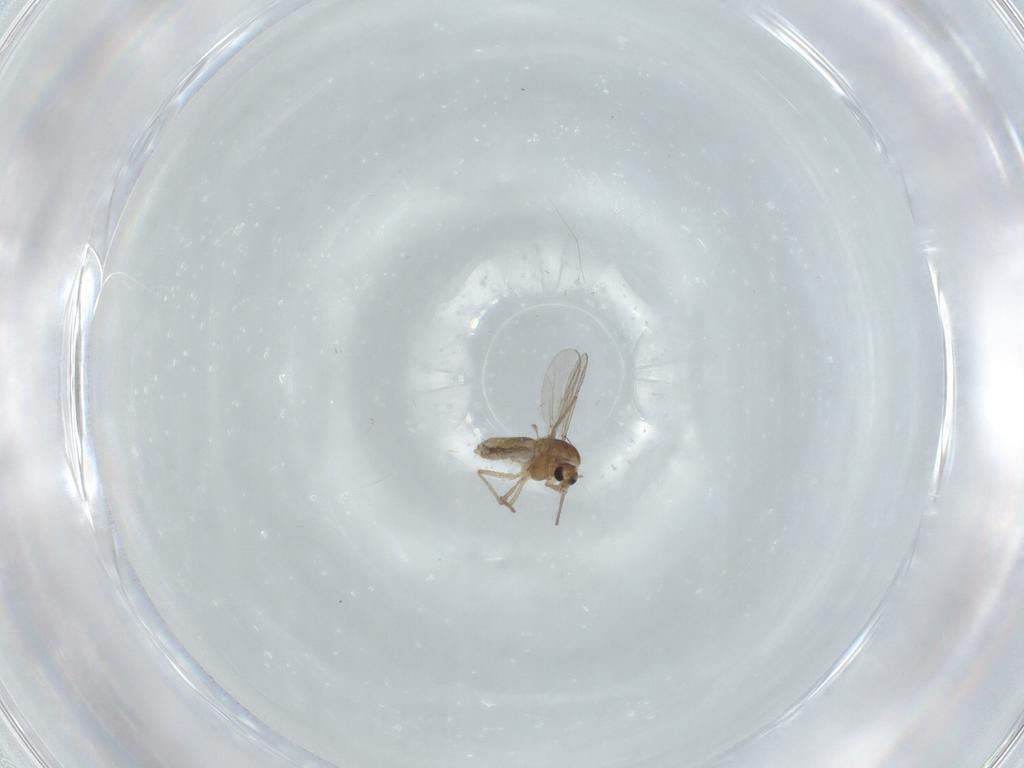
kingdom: Animalia
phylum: Arthropoda
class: Insecta
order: Diptera
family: Chironomidae
